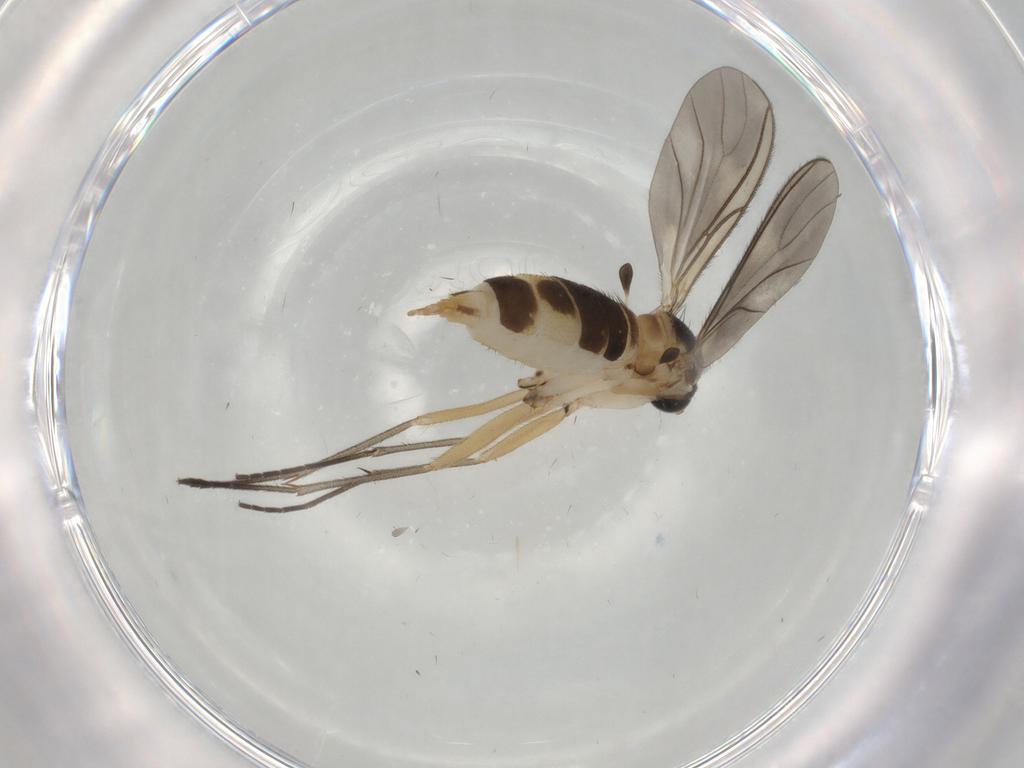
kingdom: Animalia
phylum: Arthropoda
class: Insecta
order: Diptera
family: Sciaridae
